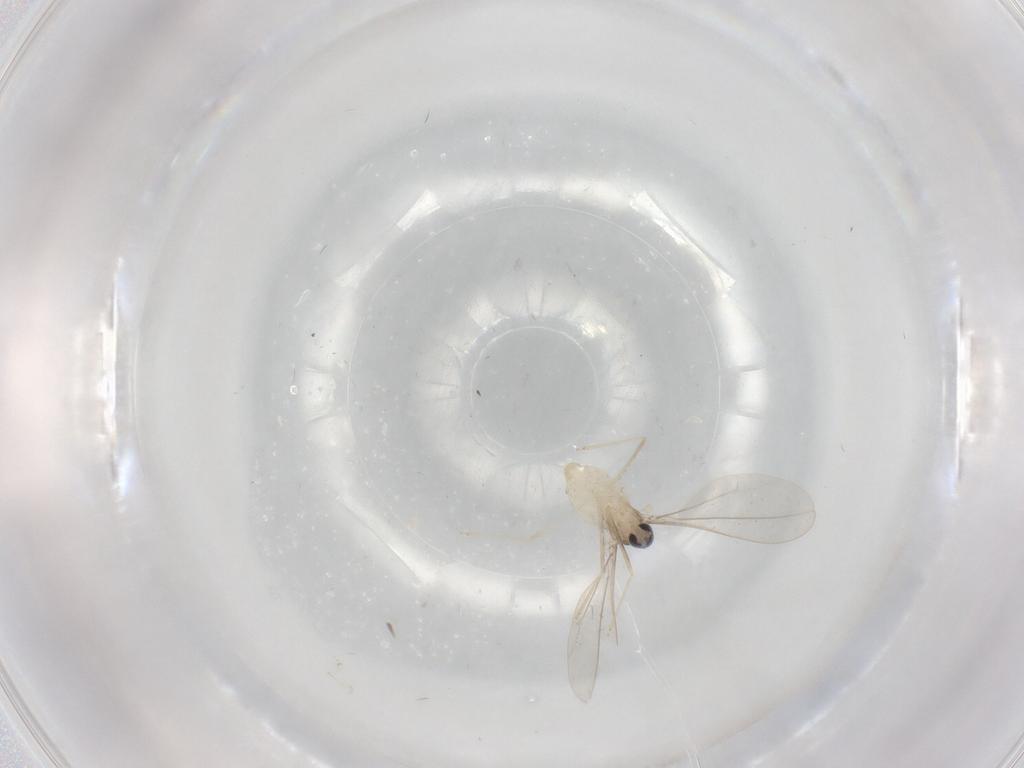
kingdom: Animalia
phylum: Arthropoda
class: Insecta
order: Diptera
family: Cecidomyiidae
